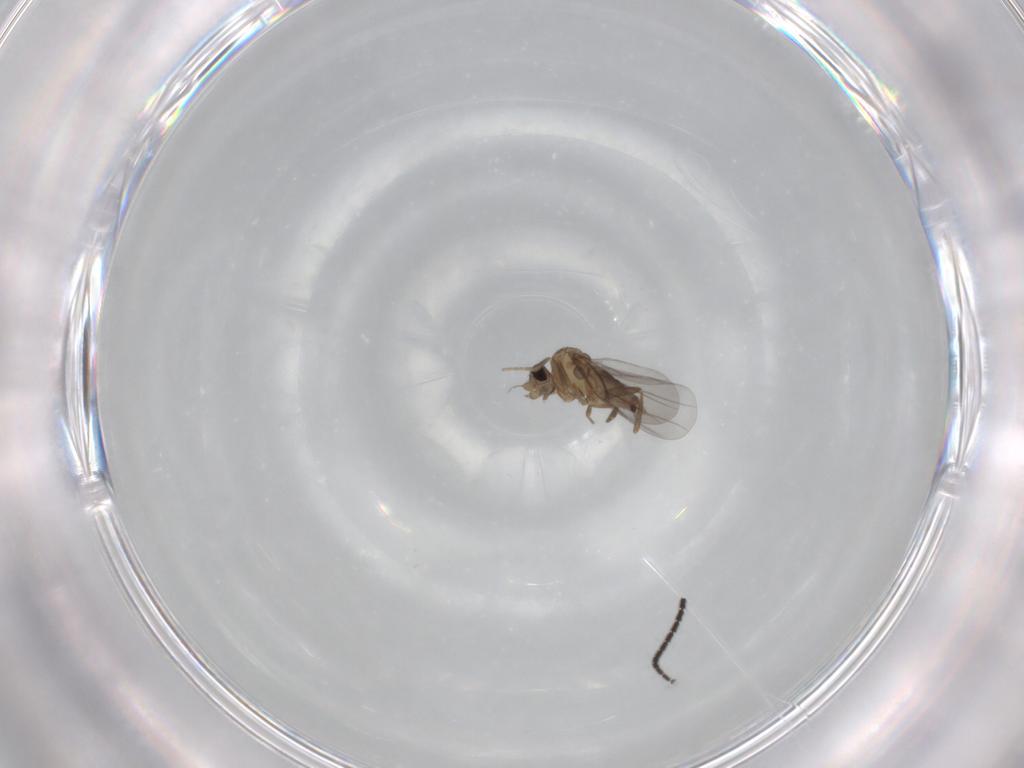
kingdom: Animalia
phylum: Arthropoda
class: Insecta
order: Diptera
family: Sciaridae
